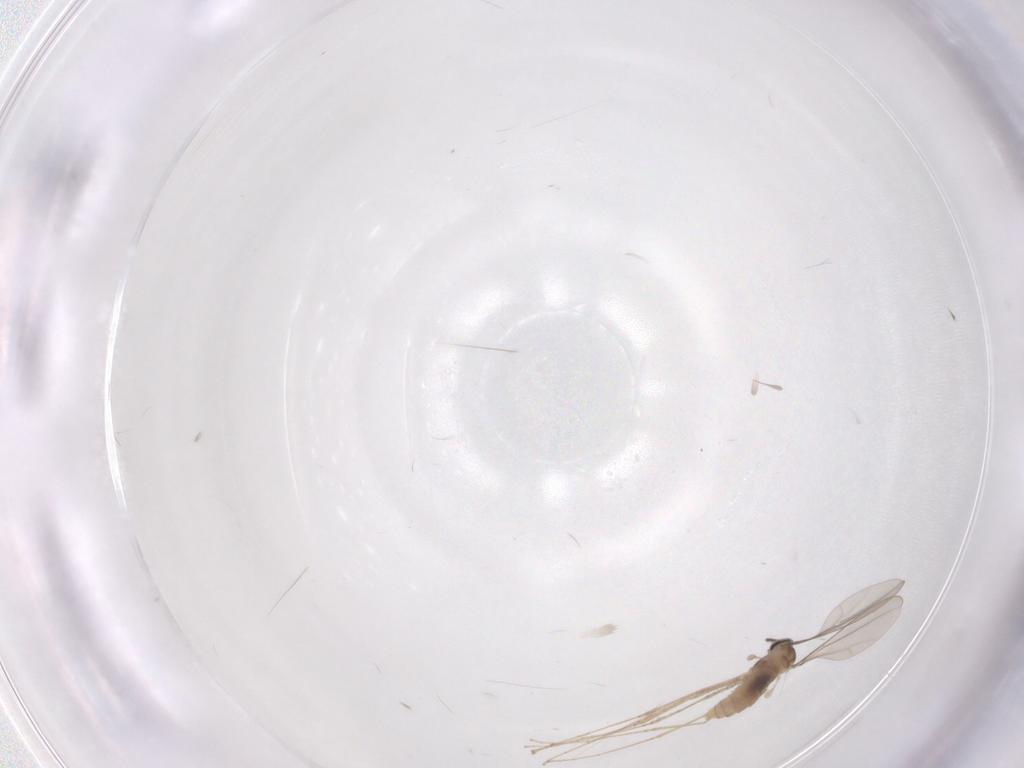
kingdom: Animalia
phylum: Arthropoda
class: Insecta
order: Diptera
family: Cecidomyiidae
